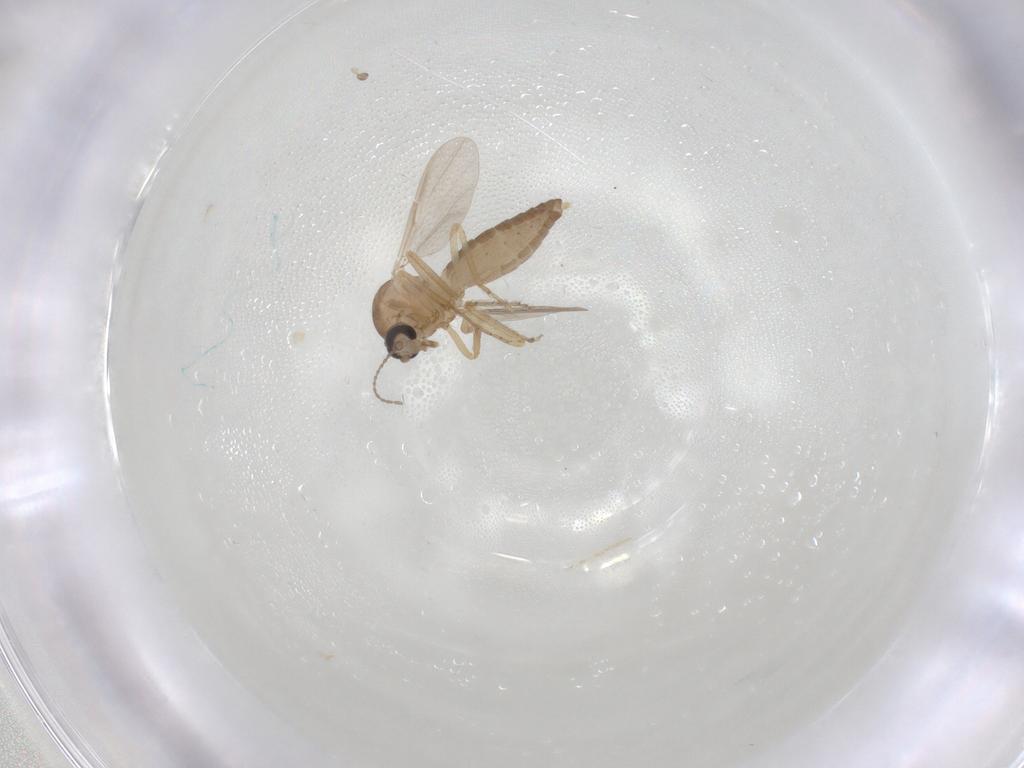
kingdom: Animalia
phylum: Arthropoda
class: Insecta
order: Diptera
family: Ceratopogonidae
